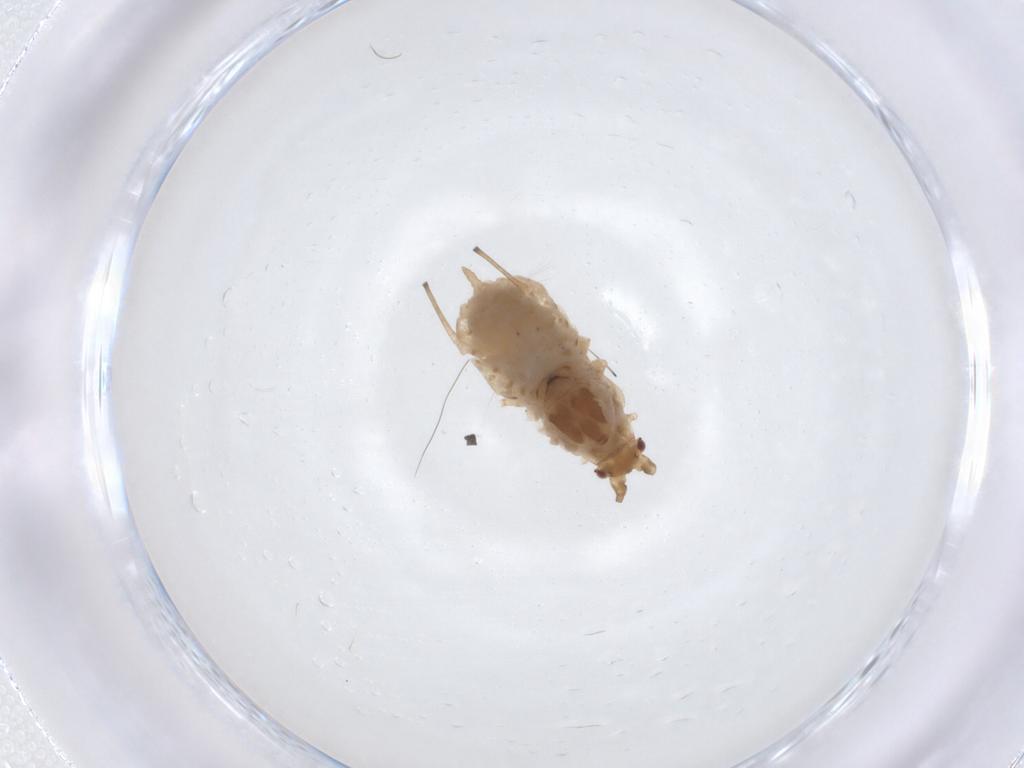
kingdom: Animalia
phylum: Arthropoda
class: Insecta
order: Hemiptera
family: Aphididae
